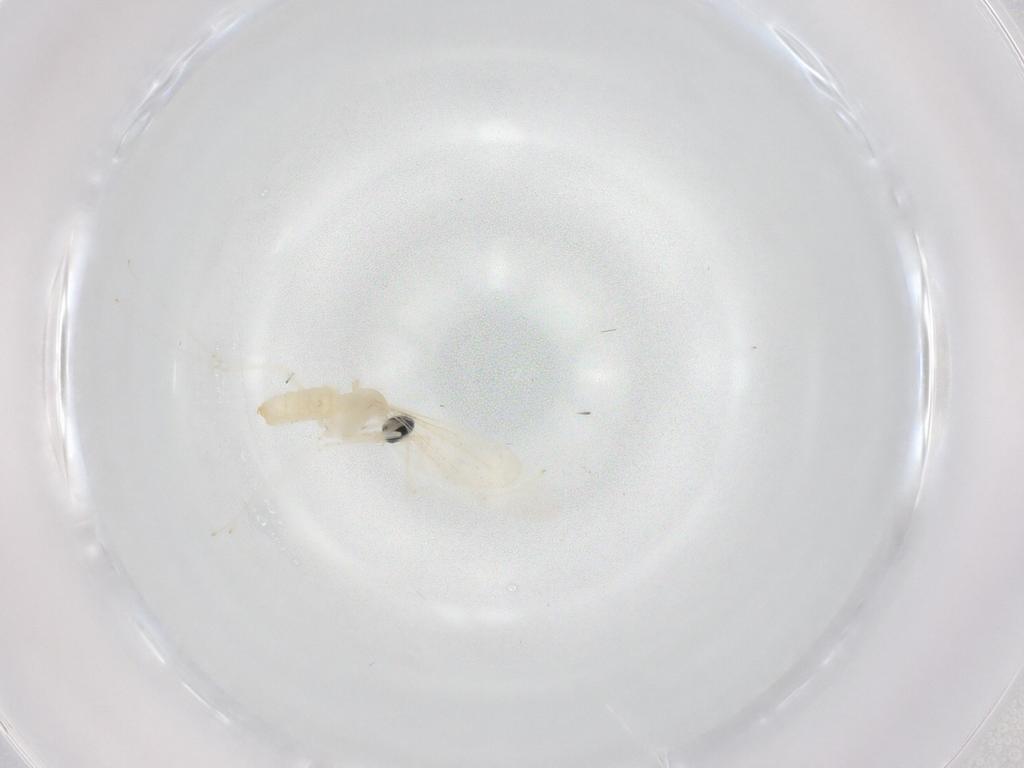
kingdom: Animalia
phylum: Arthropoda
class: Insecta
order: Diptera
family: Cecidomyiidae
